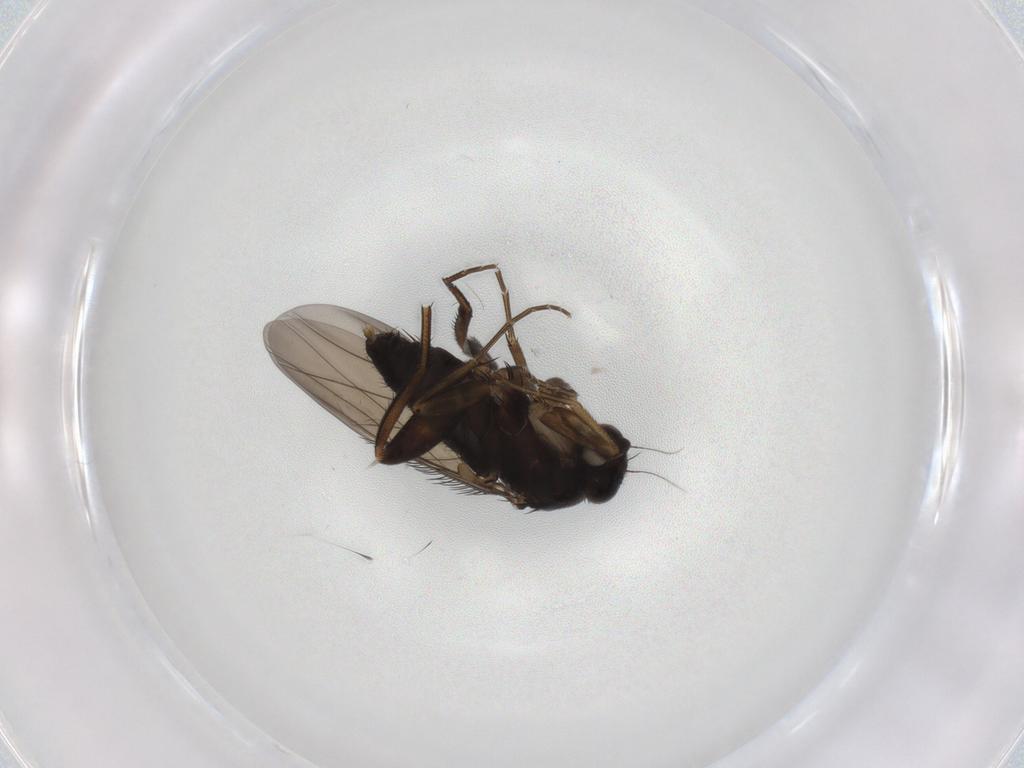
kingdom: Animalia
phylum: Arthropoda
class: Insecta
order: Diptera
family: Phoridae
